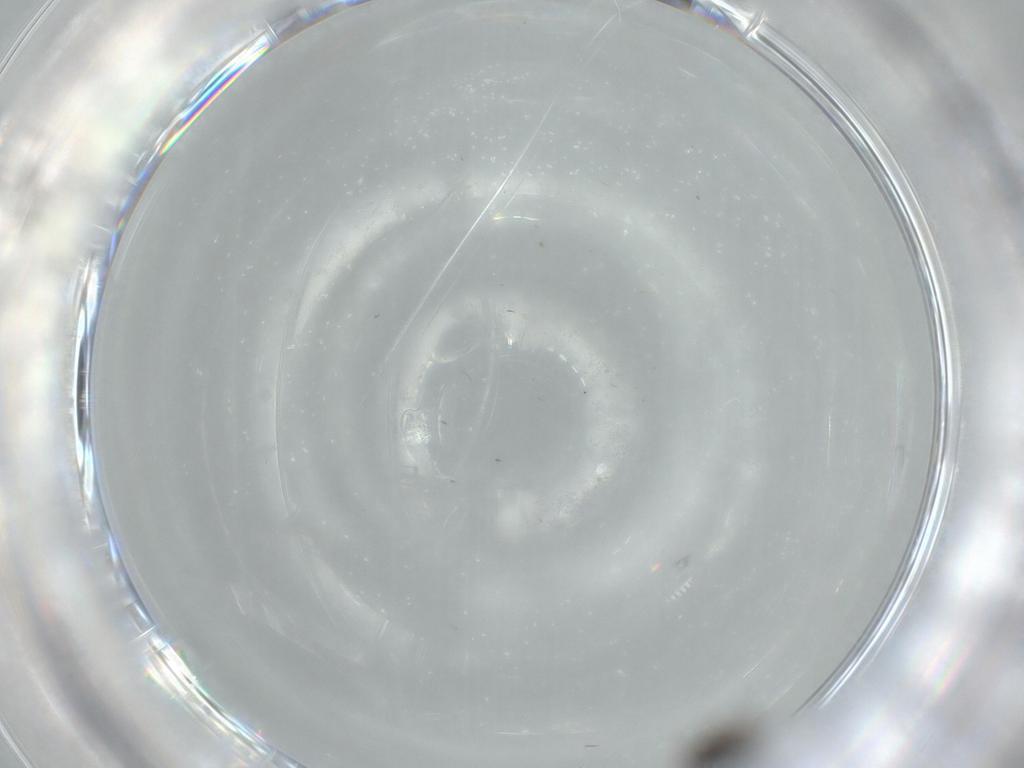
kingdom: Animalia
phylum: Arthropoda
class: Insecta
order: Diptera
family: Sciaridae
